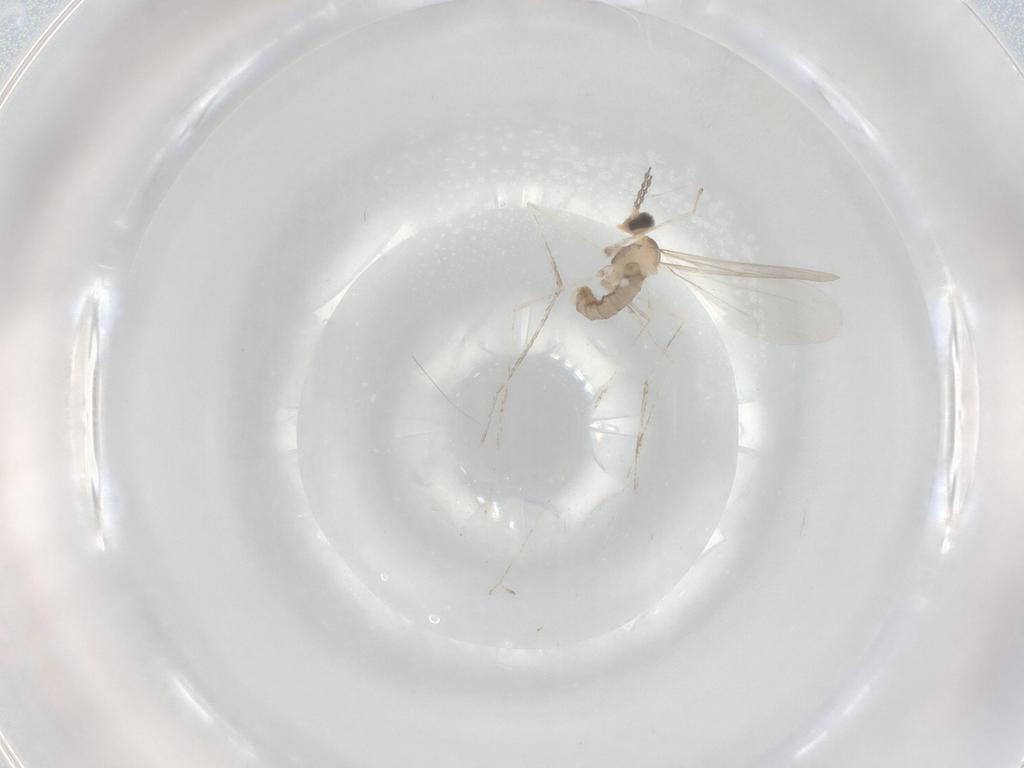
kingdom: Animalia
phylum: Arthropoda
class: Insecta
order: Diptera
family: Cecidomyiidae
